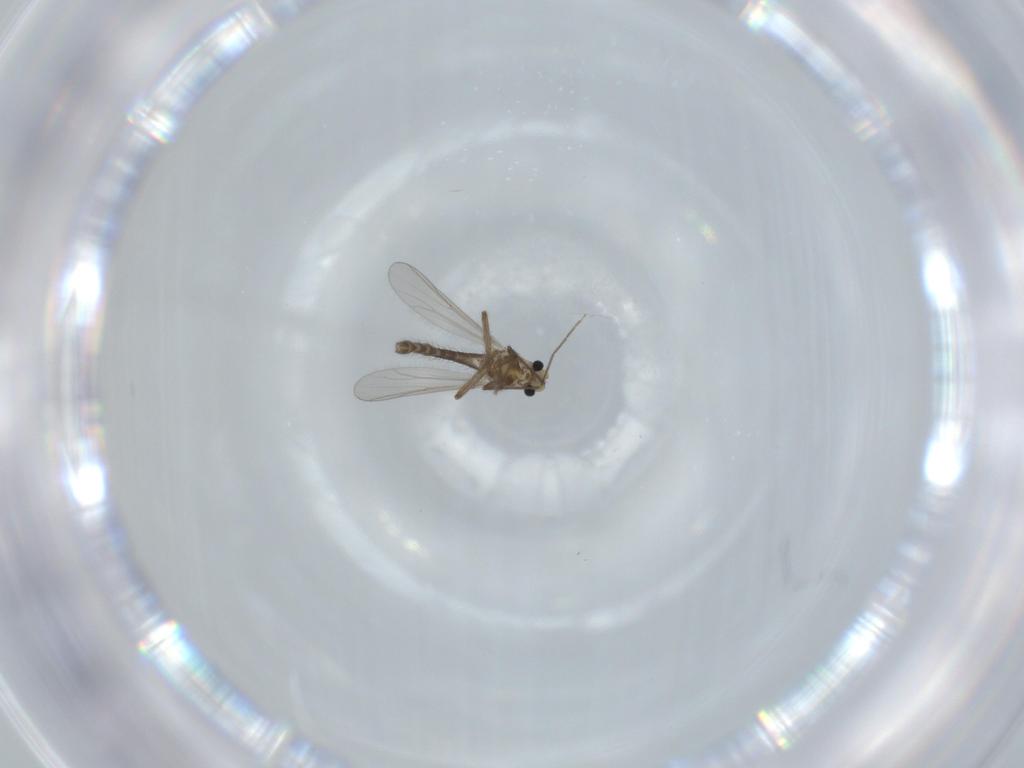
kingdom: Animalia
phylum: Arthropoda
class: Insecta
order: Diptera
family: Chironomidae
